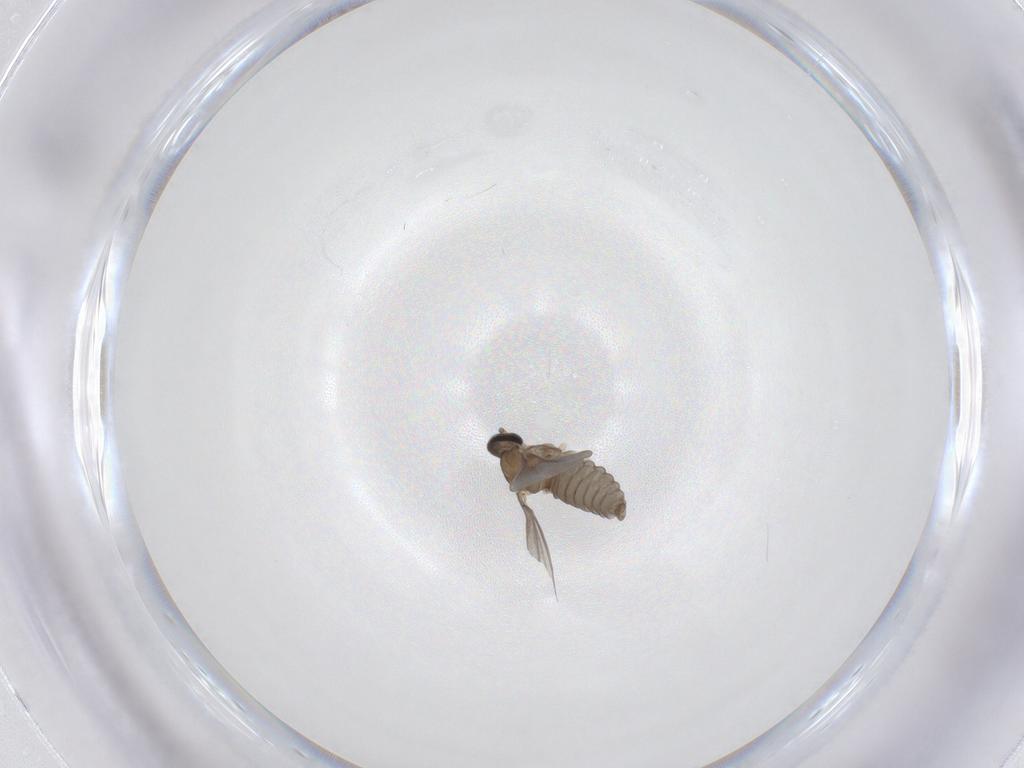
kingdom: Animalia
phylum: Arthropoda
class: Insecta
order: Diptera
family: Cecidomyiidae
